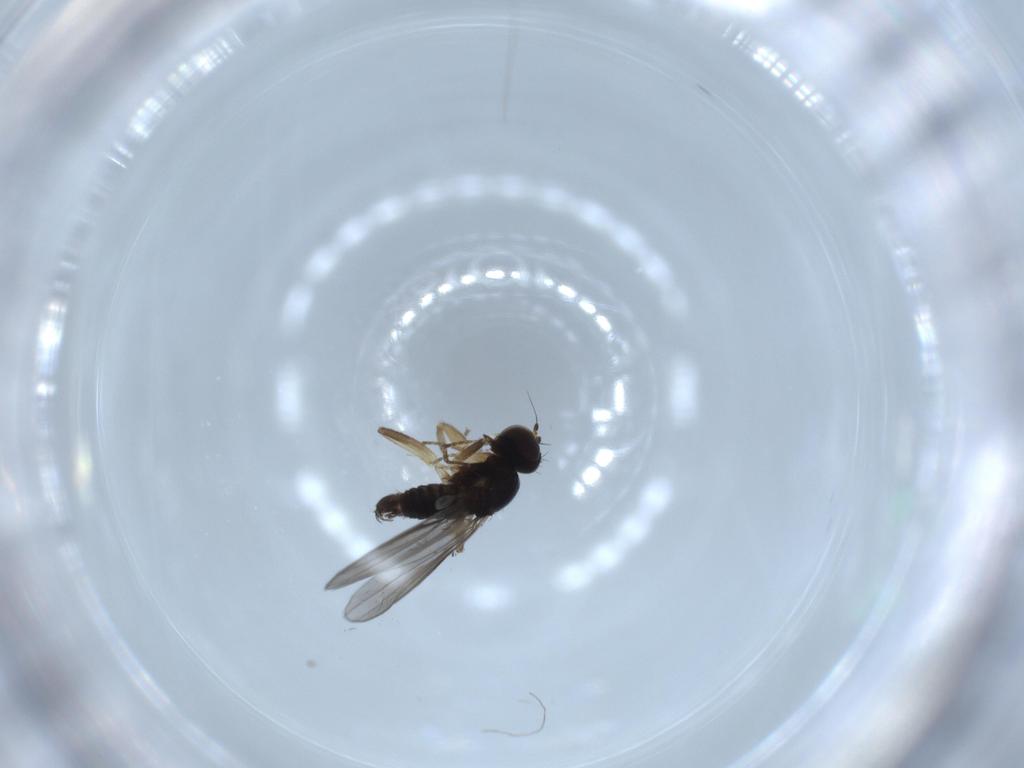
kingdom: Animalia
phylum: Arthropoda
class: Insecta
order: Diptera
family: Hybotidae
